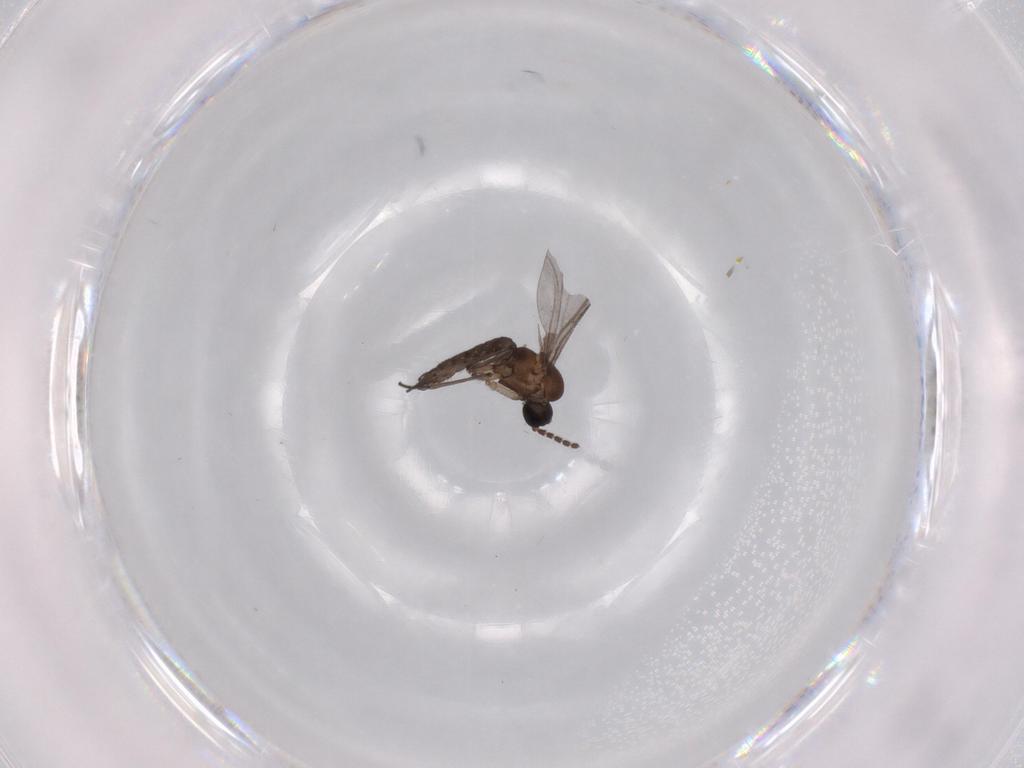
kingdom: Animalia
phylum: Arthropoda
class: Insecta
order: Diptera
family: Sciaridae
